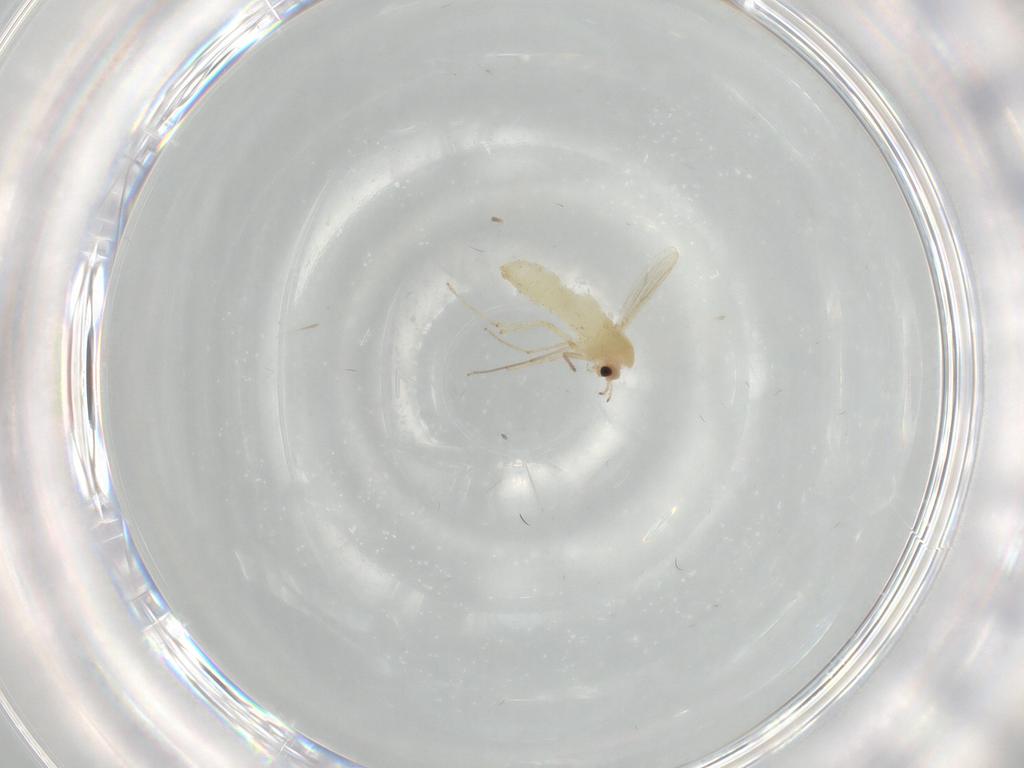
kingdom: Animalia
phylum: Arthropoda
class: Insecta
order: Diptera
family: Chironomidae
